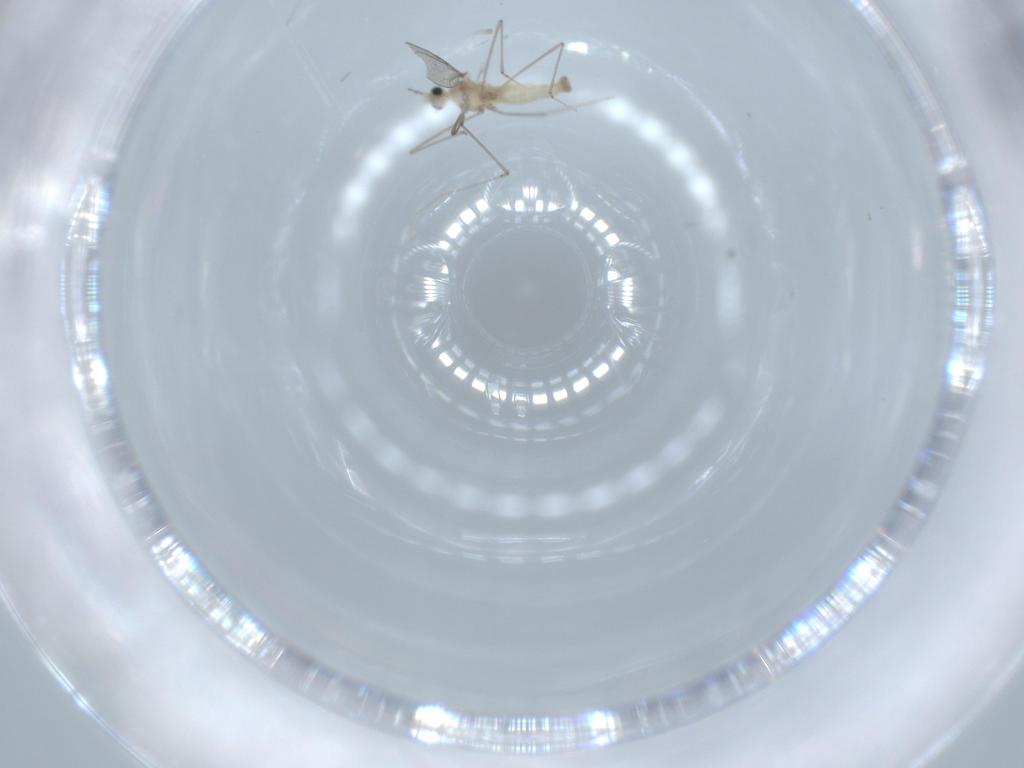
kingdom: Animalia
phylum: Arthropoda
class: Insecta
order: Diptera
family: Cecidomyiidae
